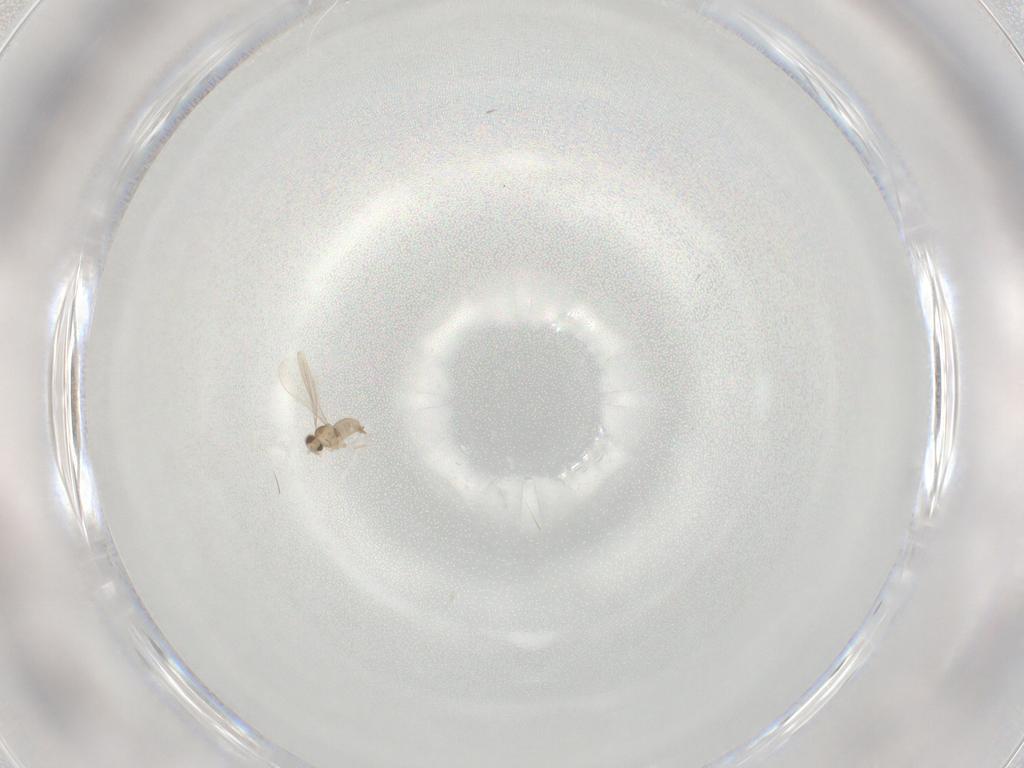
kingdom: Animalia
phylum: Arthropoda
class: Insecta
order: Diptera
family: Cecidomyiidae
